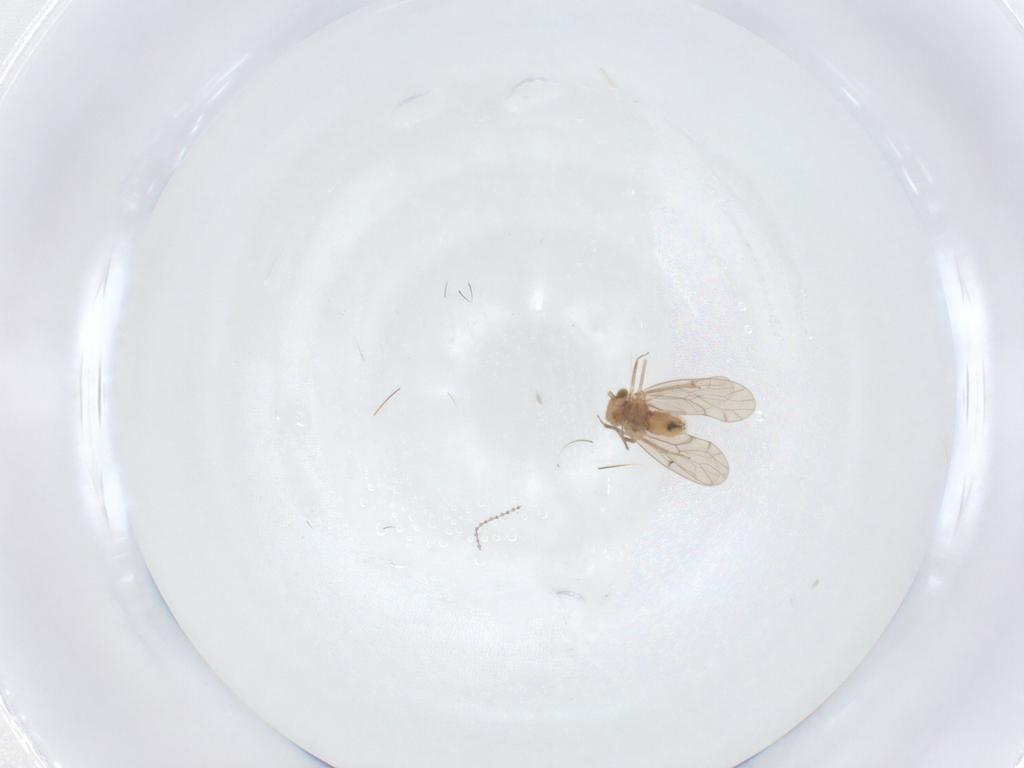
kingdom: Animalia
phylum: Arthropoda
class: Insecta
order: Psocodea
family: Ectopsocidae
